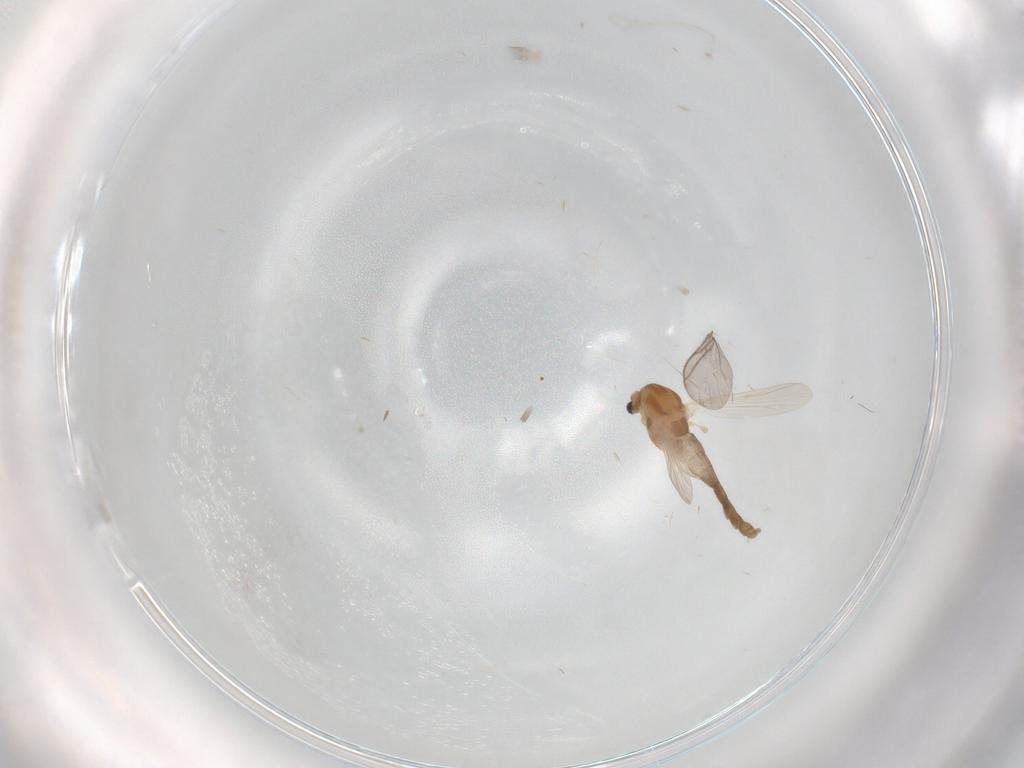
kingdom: Animalia
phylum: Arthropoda
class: Insecta
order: Diptera
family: Chironomidae
